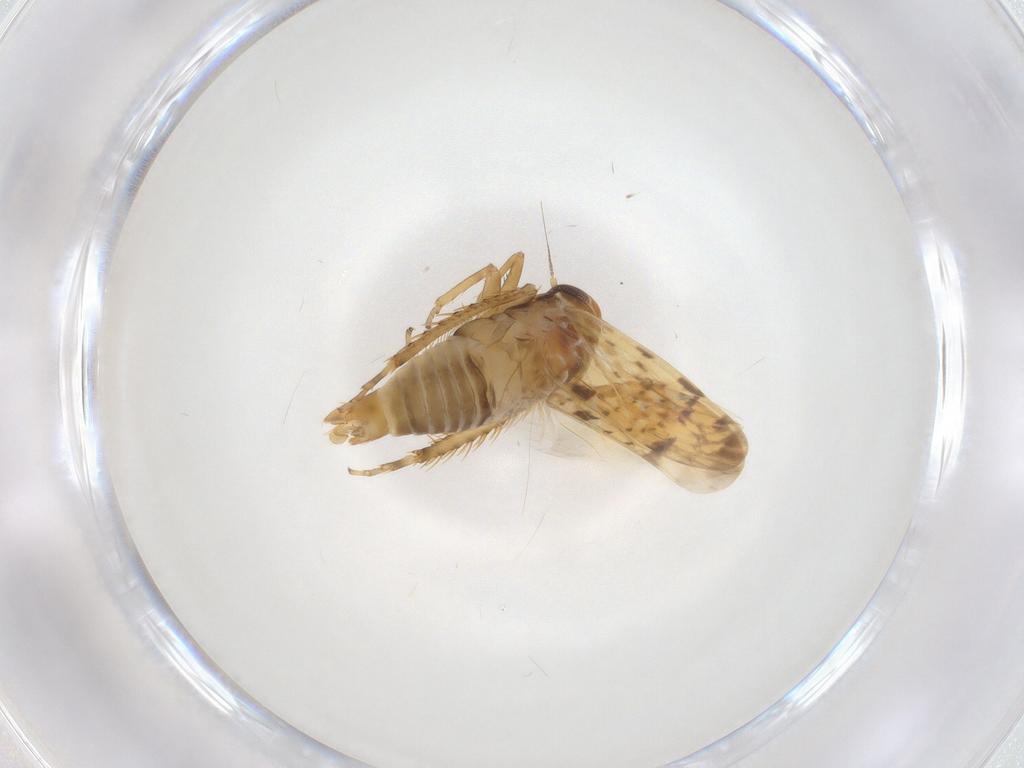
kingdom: Animalia
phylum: Arthropoda
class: Insecta
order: Hemiptera
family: Cicadellidae
